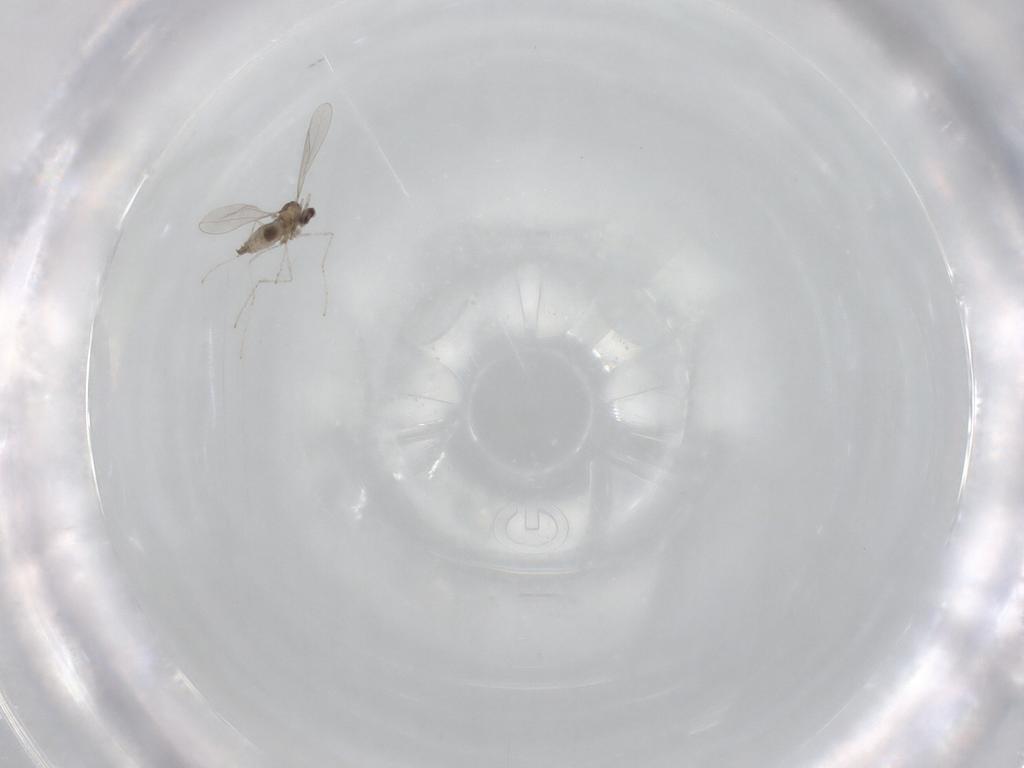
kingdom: Animalia
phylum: Arthropoda
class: Insecta
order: Diptera
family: Cecidomyiidae
